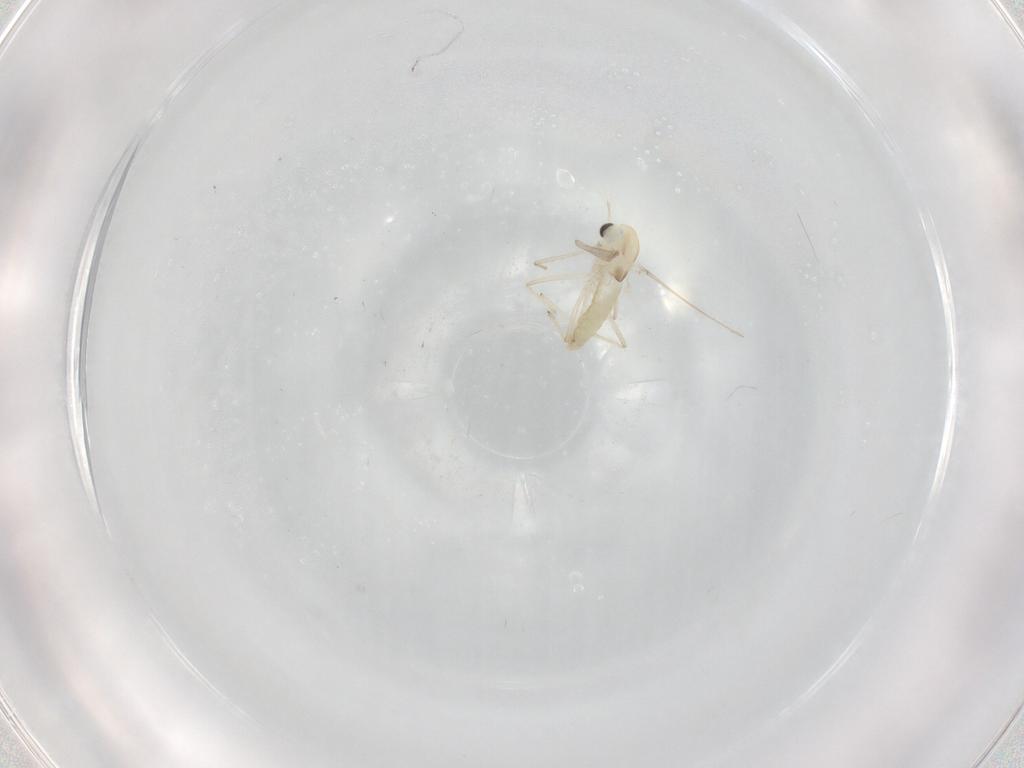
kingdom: Animalia
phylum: Arthropoda
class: Insecta
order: Diptera
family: Chironomidae
